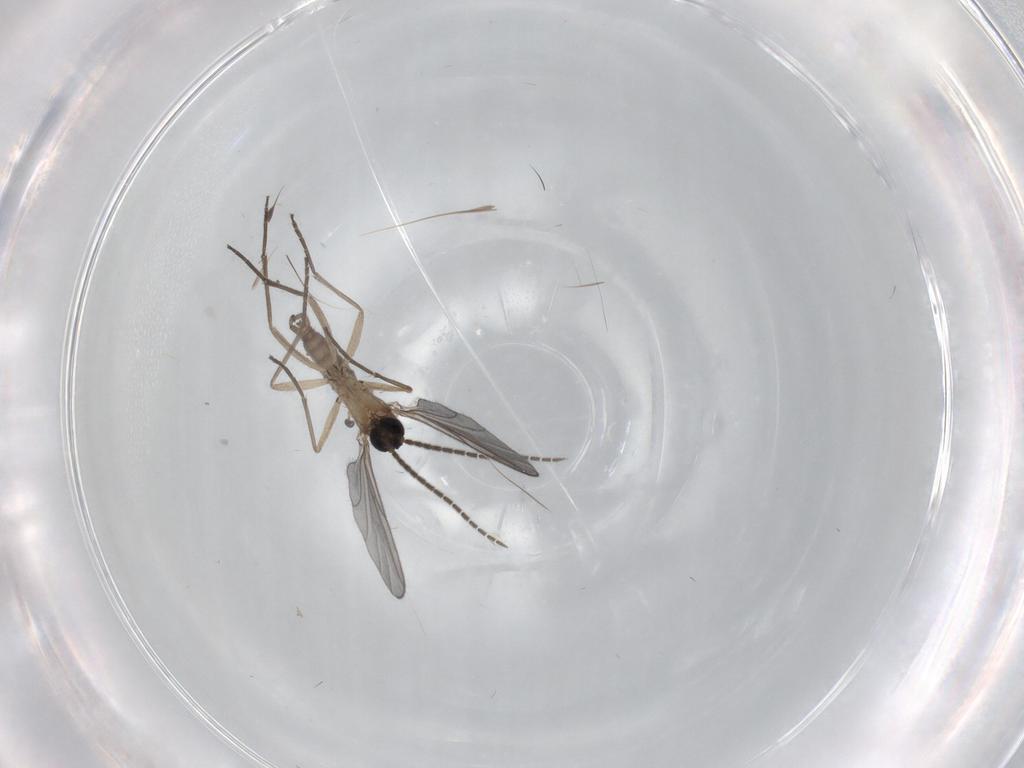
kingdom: Animalia
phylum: Arthropoda
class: Insecta
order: Diptera
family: Sciaridae
